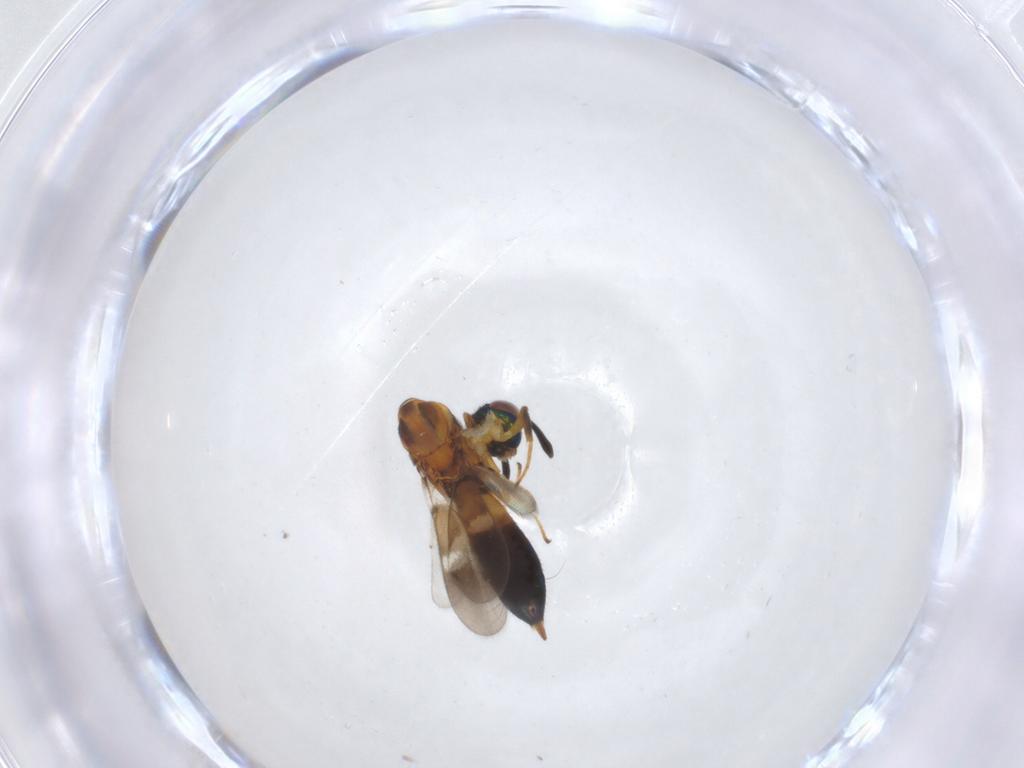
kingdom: Animalia
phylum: Arthropoda
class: Insecta
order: Hymenoptera
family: Eupelmidae
